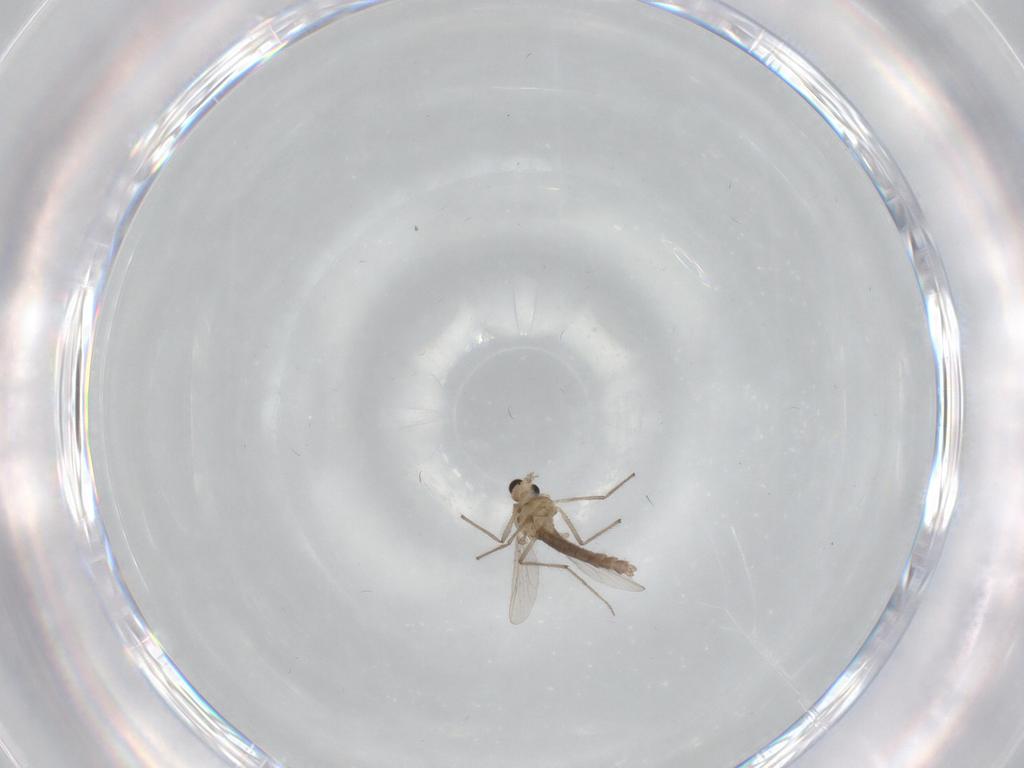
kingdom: Animalia
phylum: Arthropoda
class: Insecta
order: Diptera
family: Chironomidae
